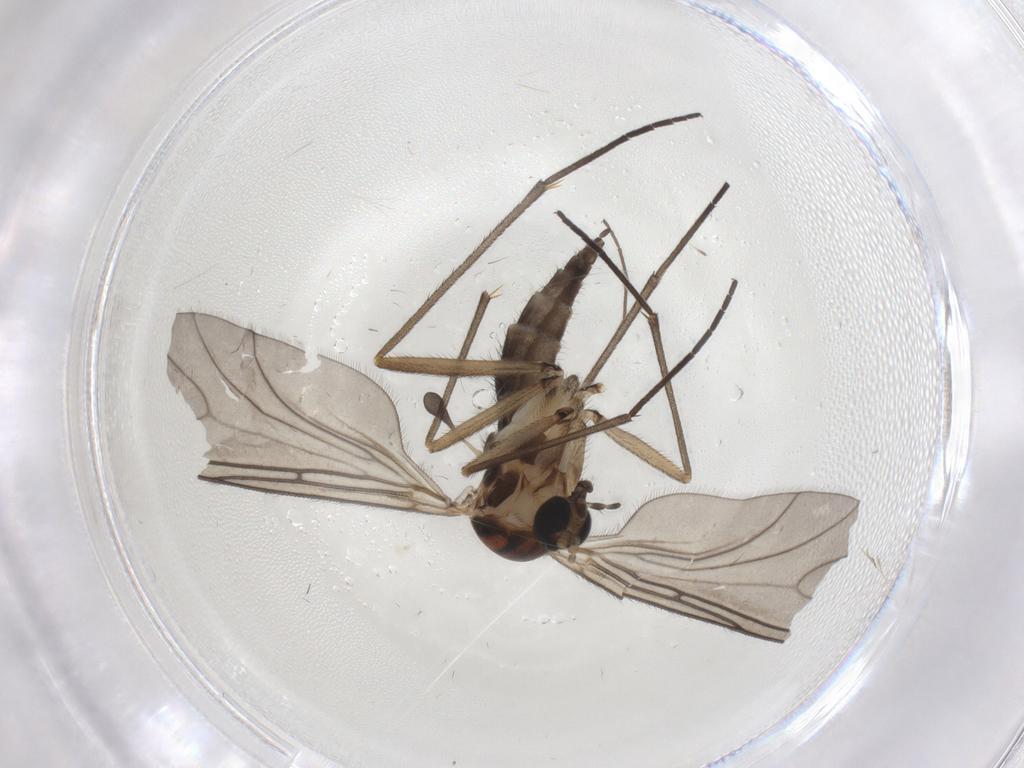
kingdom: Animalia
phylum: Arthropoda
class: Insecta
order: Diptera
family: Sciaridae
